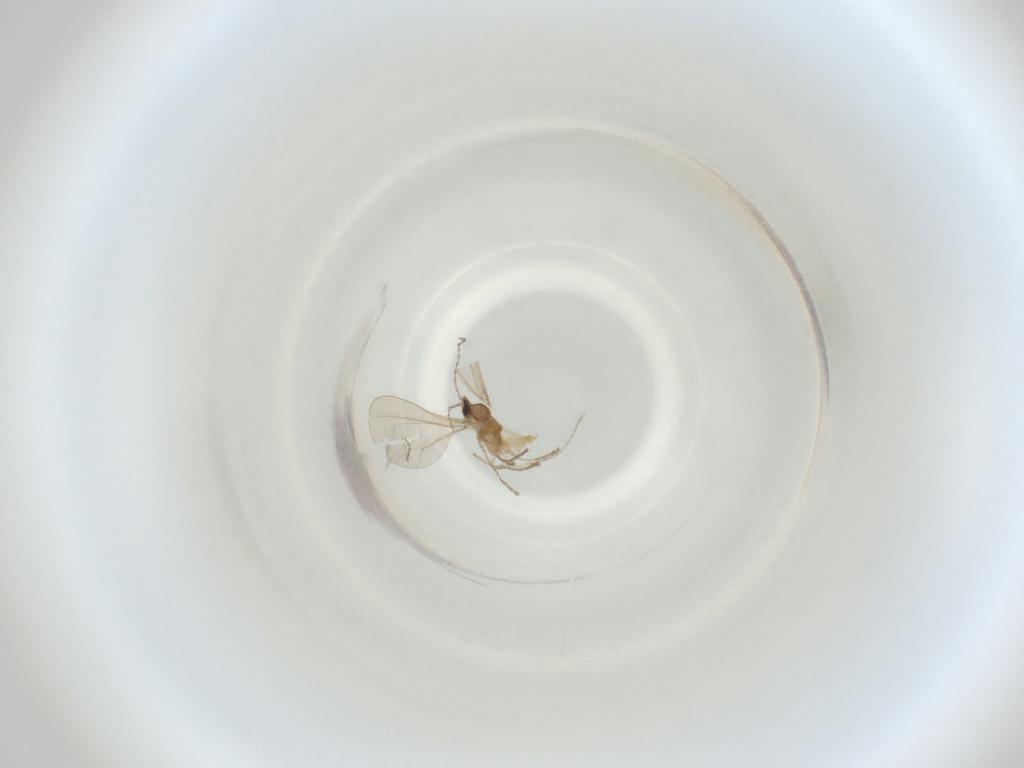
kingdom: Animalia
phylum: Arthropoda
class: Insecta
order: Diptera
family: Cecidomyiidae
